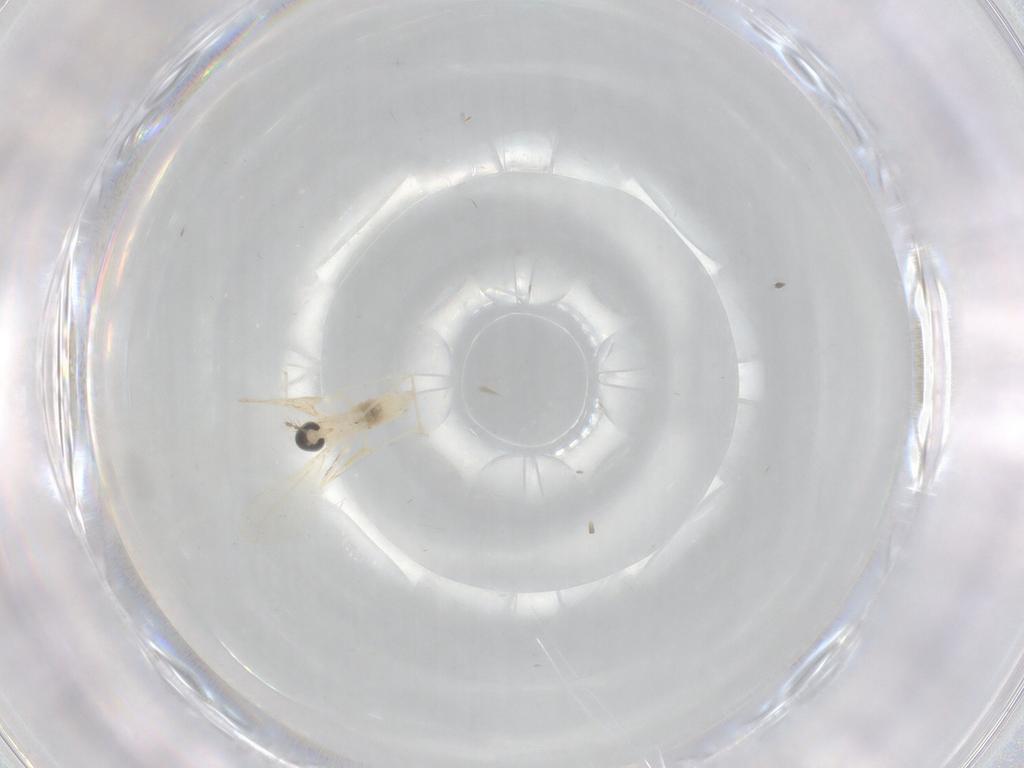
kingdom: Animalia
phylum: Arthropoda
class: Insecta
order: Diptera
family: Cecidomyiidae
